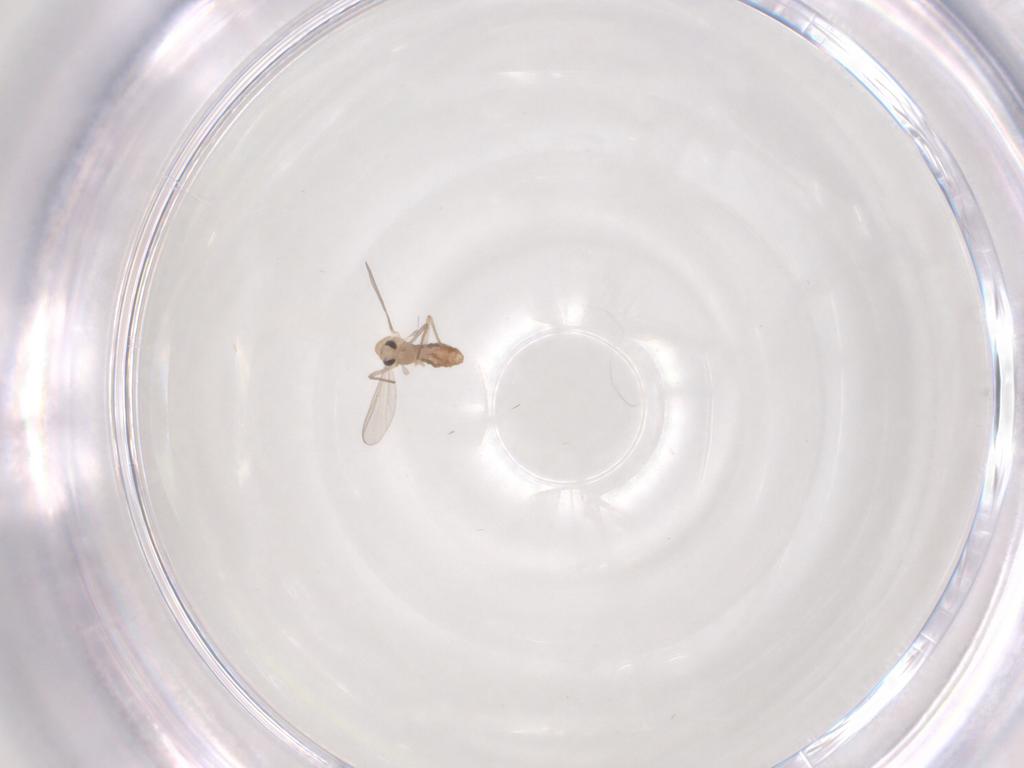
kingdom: Animalia
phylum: Arthropoda
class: Insecta
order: Diptera
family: Chironomidae
